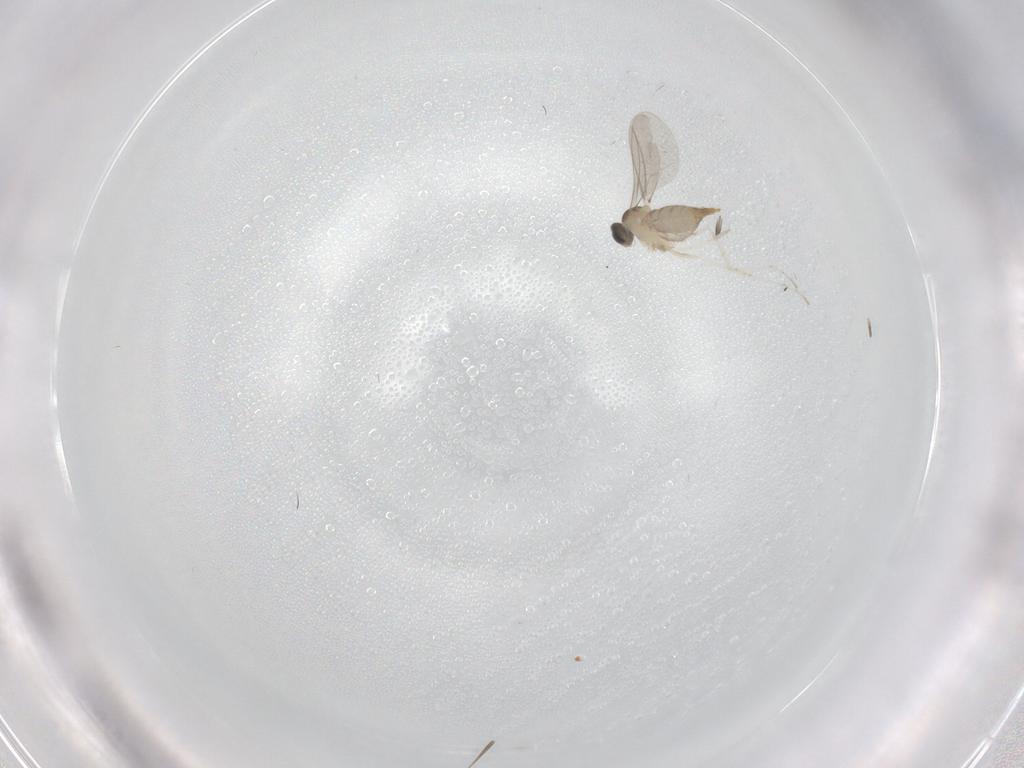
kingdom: Animalia
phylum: Arthropoda
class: Insecta
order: Diptera
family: Cecidomyiidae
